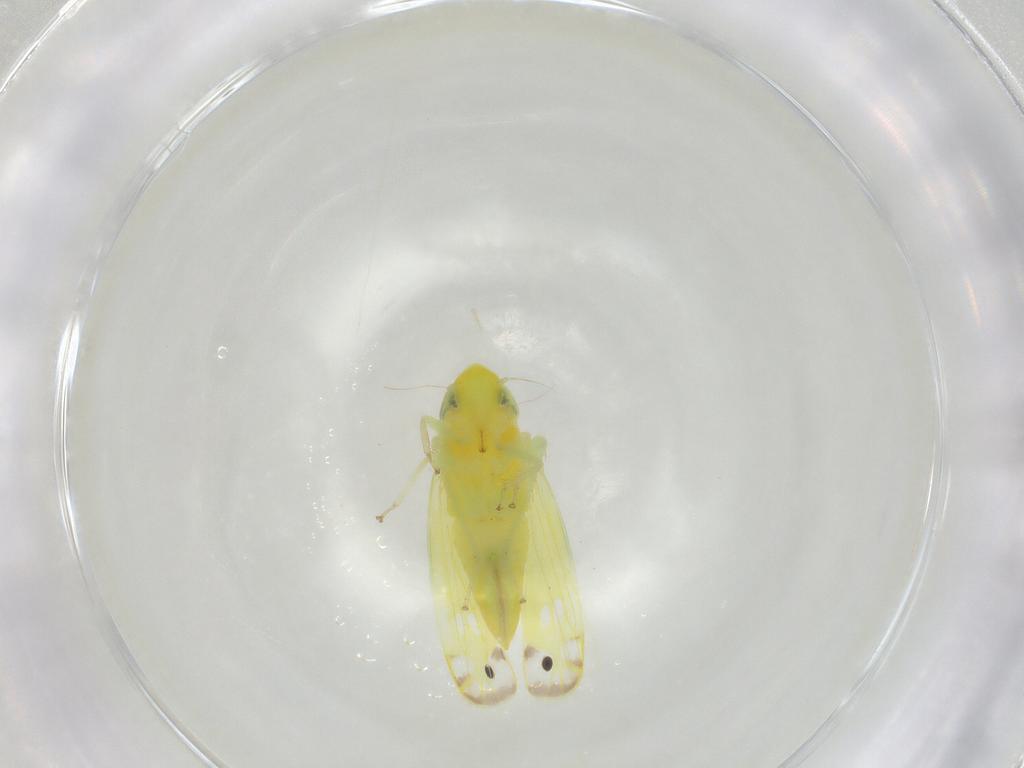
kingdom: Animalia
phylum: Arthropoda
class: Insecta
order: Hemiptera
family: Cicadellidae
